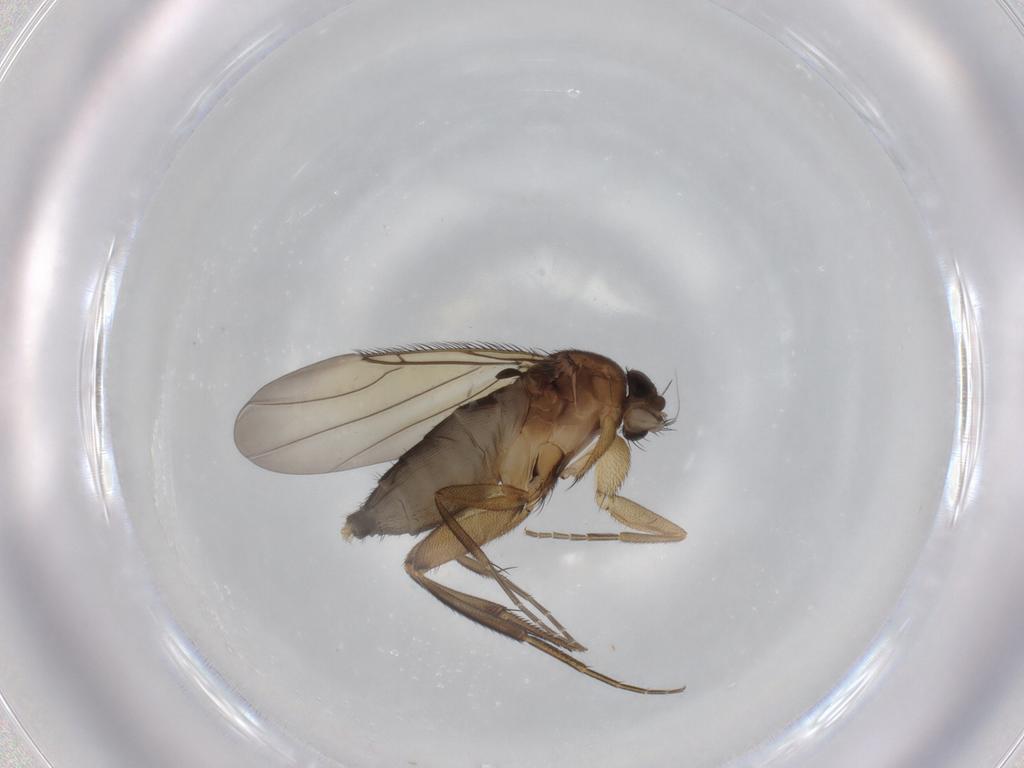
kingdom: Animalia
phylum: Arthropoda
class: Insecta
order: Diptera
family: Phoridae
